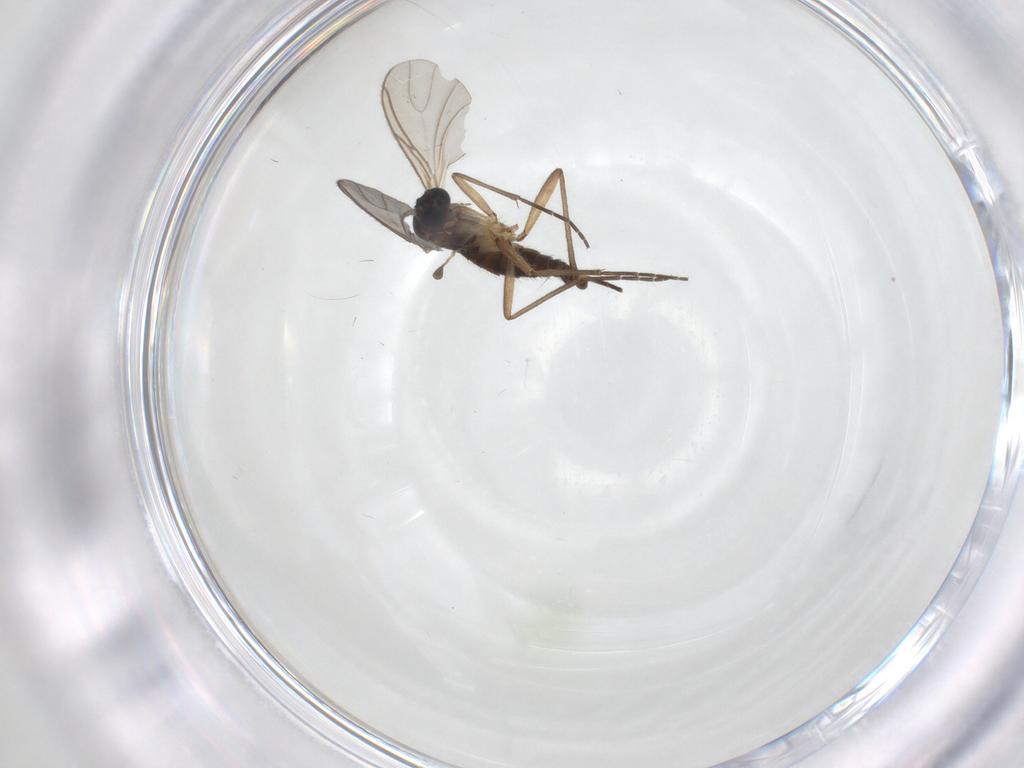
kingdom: Animalia
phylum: Arthropoda
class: Insecta
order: Diptera
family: Sciaridae
